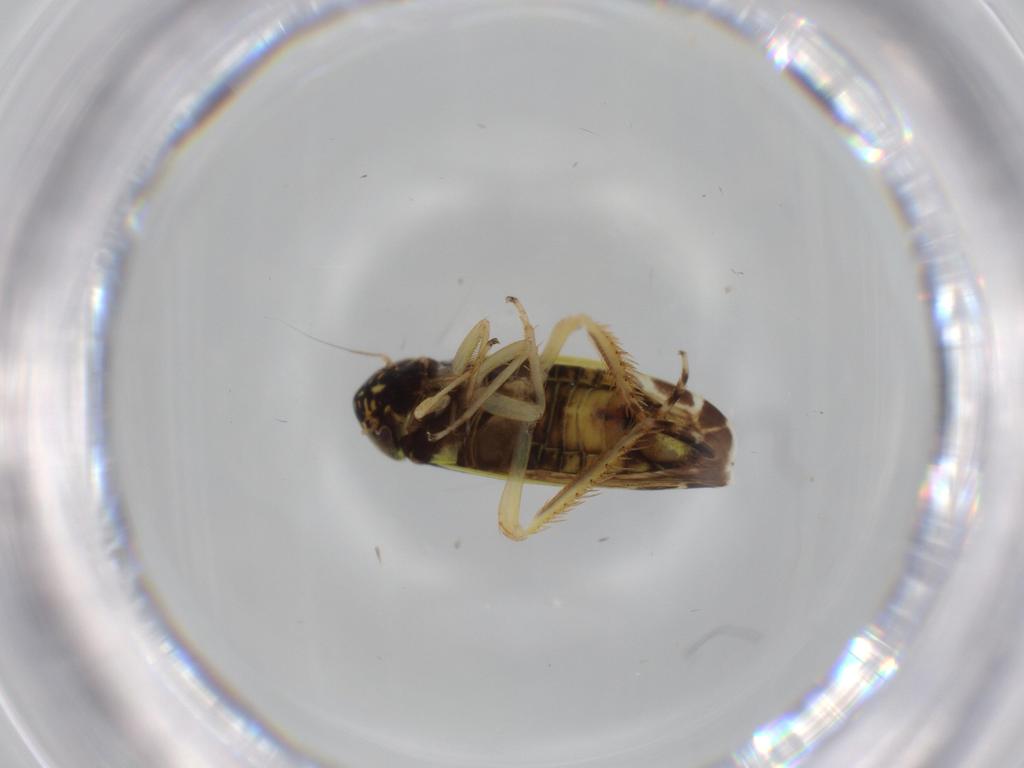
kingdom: Animalia
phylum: Arthropoda
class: Insecta
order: Hemiptera
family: Cicadellidae
